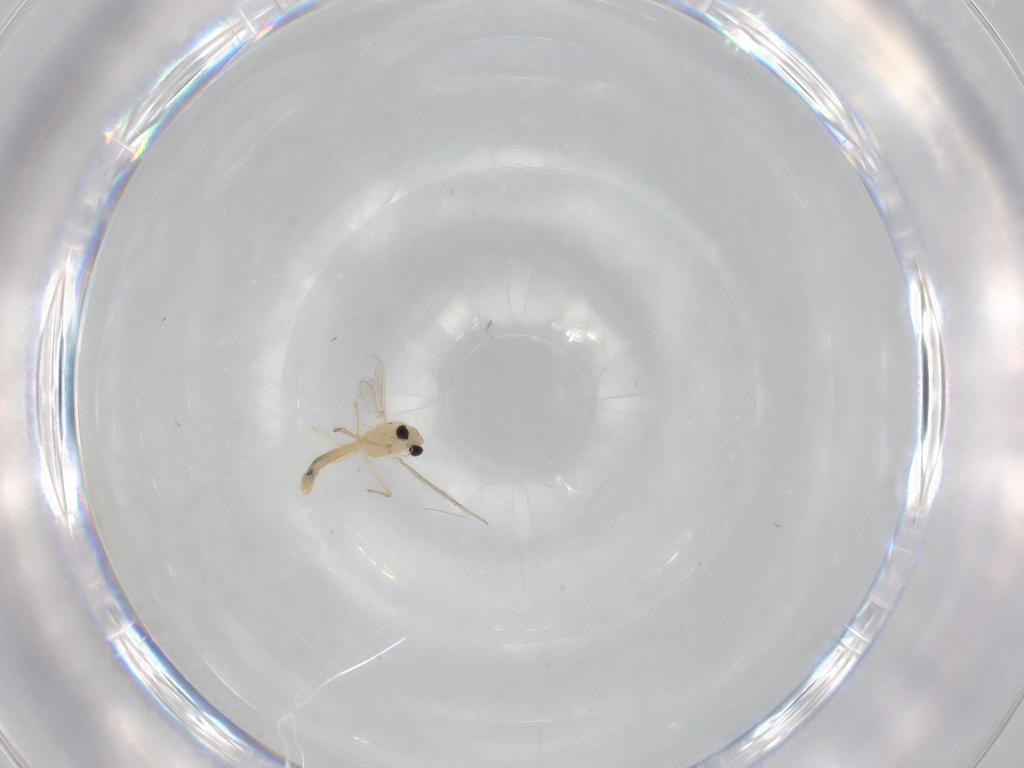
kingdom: Animalia
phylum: Arthropoda
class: Insecta
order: Diptera
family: Chironomidae
